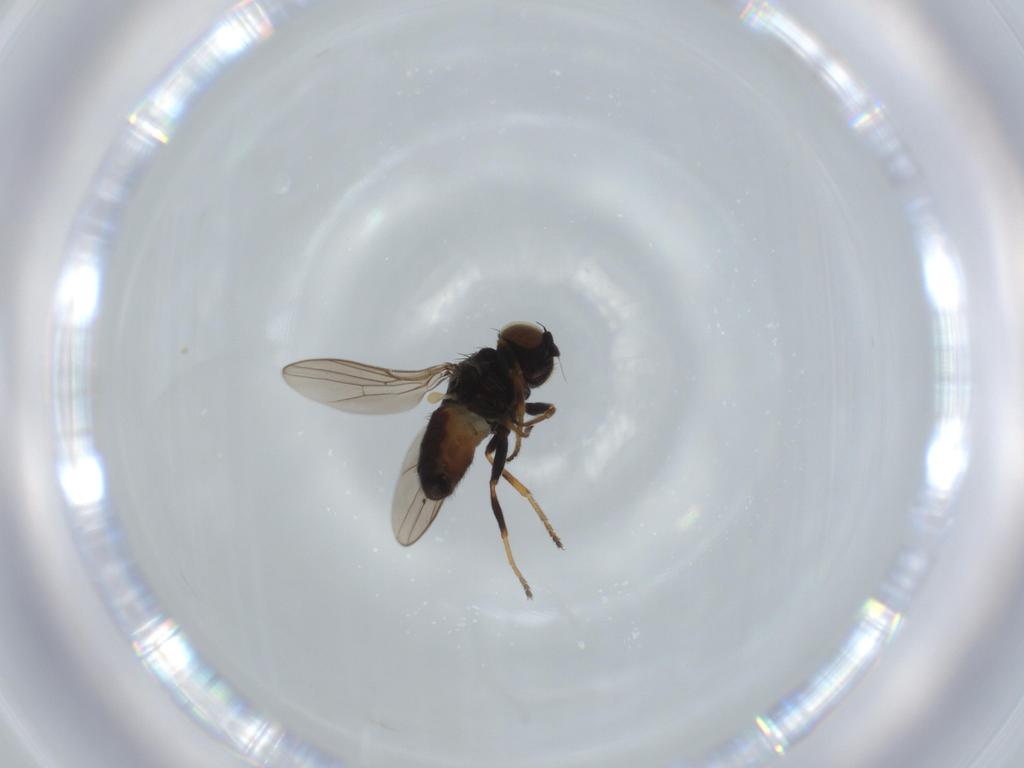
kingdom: Animalia
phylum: Arthropoda
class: Insecta
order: Diptera
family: Chloropidae
